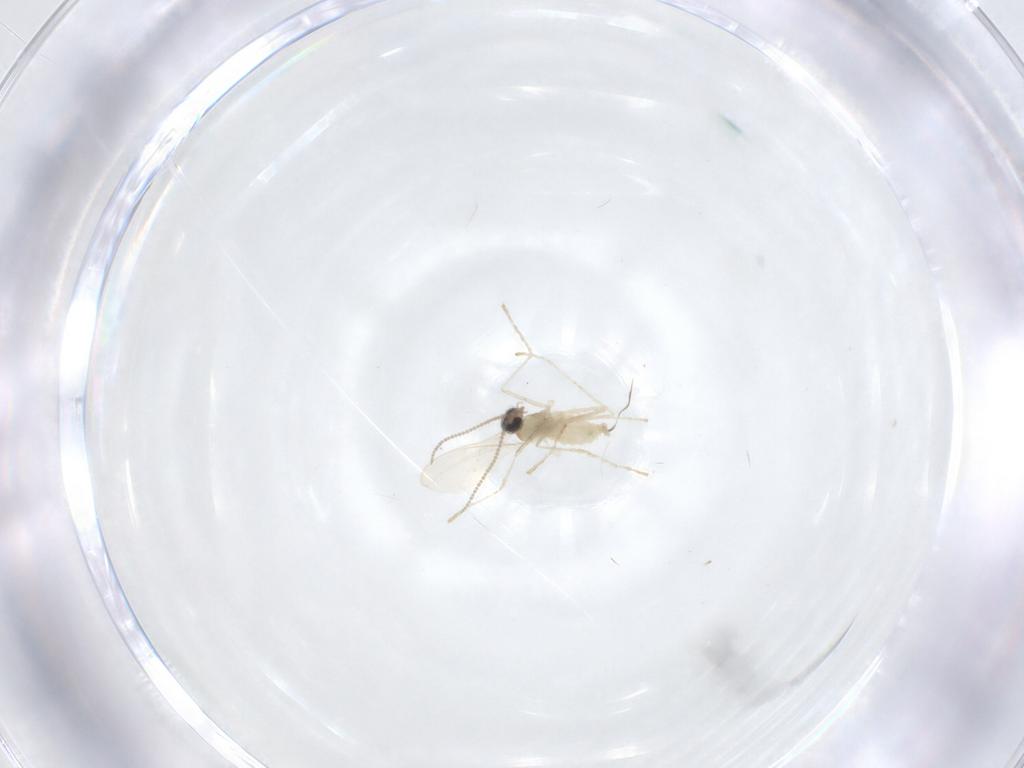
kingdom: Animalia
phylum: Arthropoda
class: Insecta
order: Diptera
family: Cecidomyiidae
